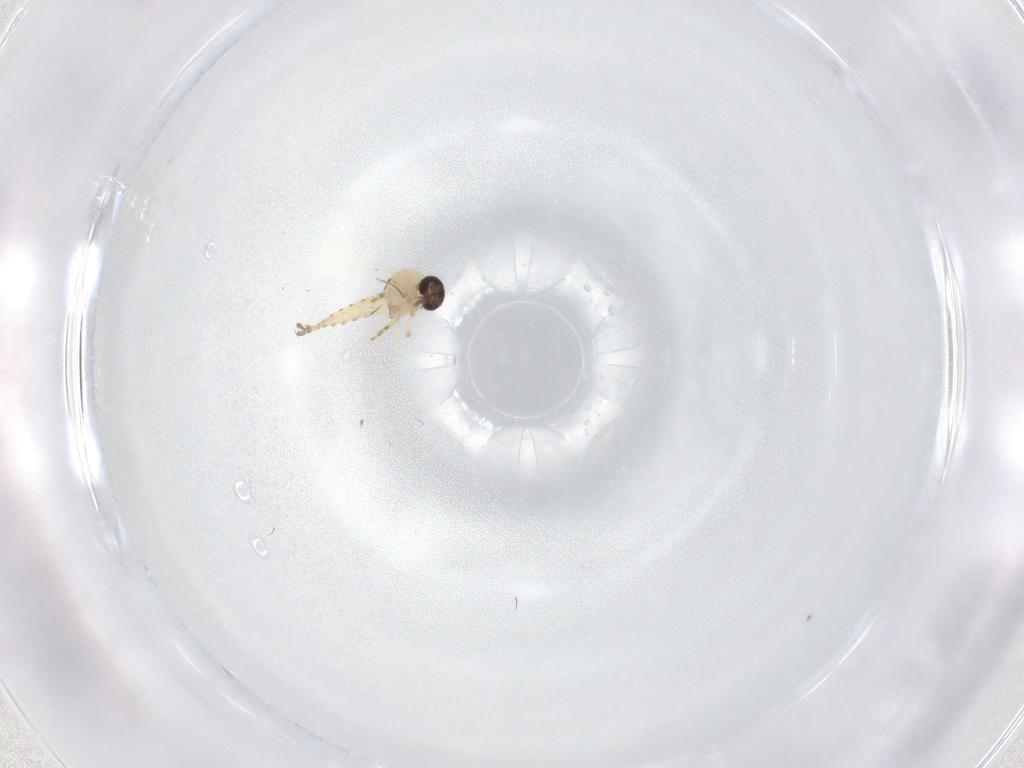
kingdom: Animalia
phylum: Arthropoda
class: Insecta
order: Diptera
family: Ceratopogonidae
